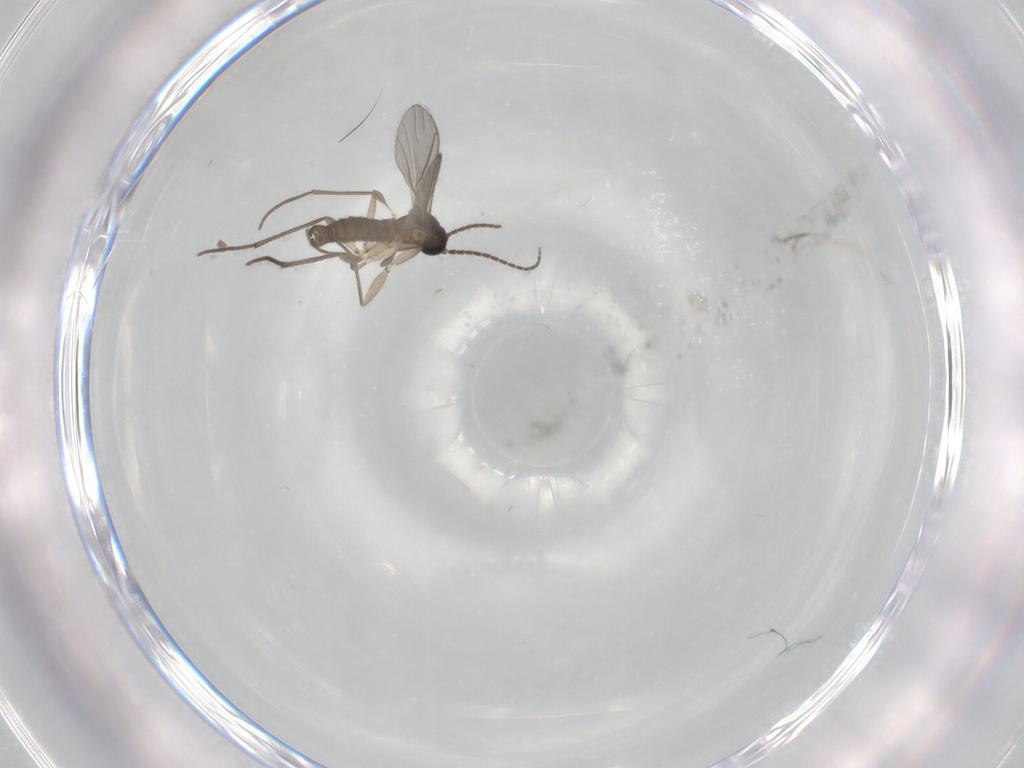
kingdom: Animalia
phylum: Arthropoda
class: Insecta
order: Diptera
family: Sciaridae
